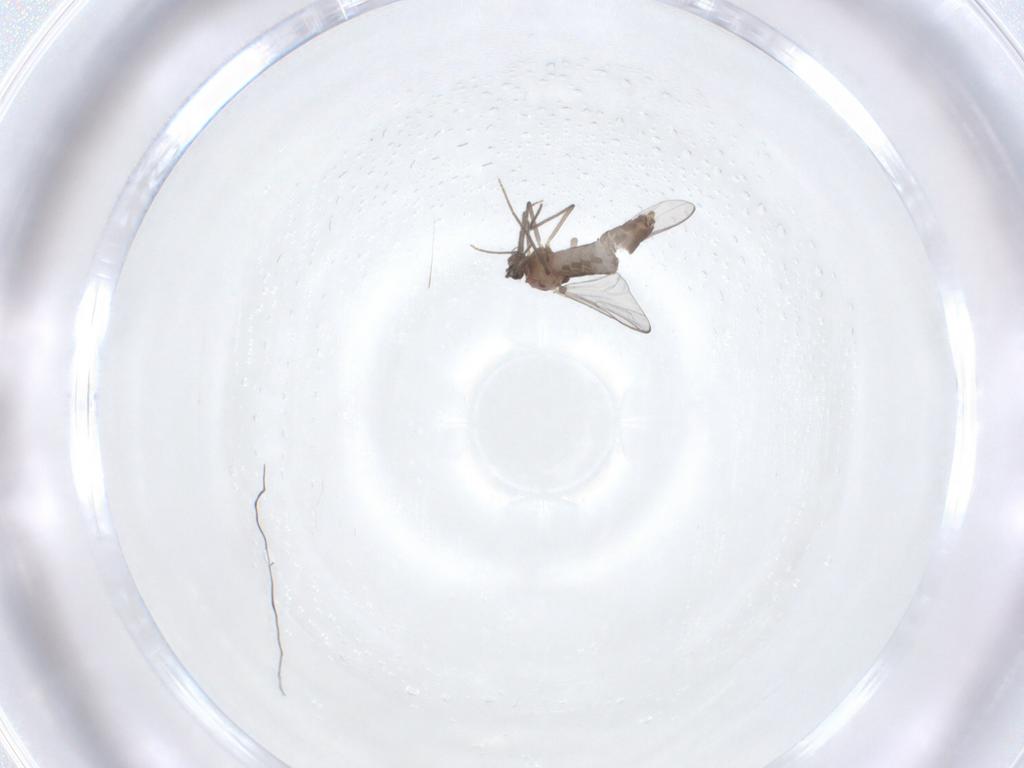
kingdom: Animalia
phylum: Arthropoda
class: Insecta
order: Diptera
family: Chironomidae
